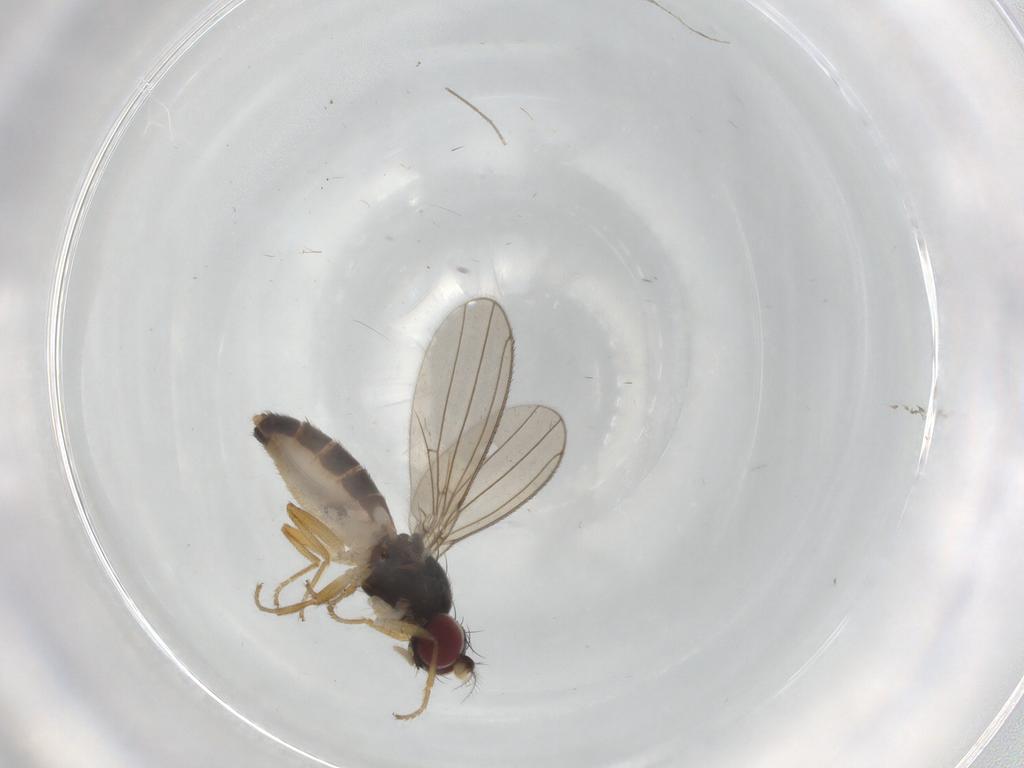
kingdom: Animalia
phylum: Arthropoda
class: Insecta
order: Diptera
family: Anthomyzidae
